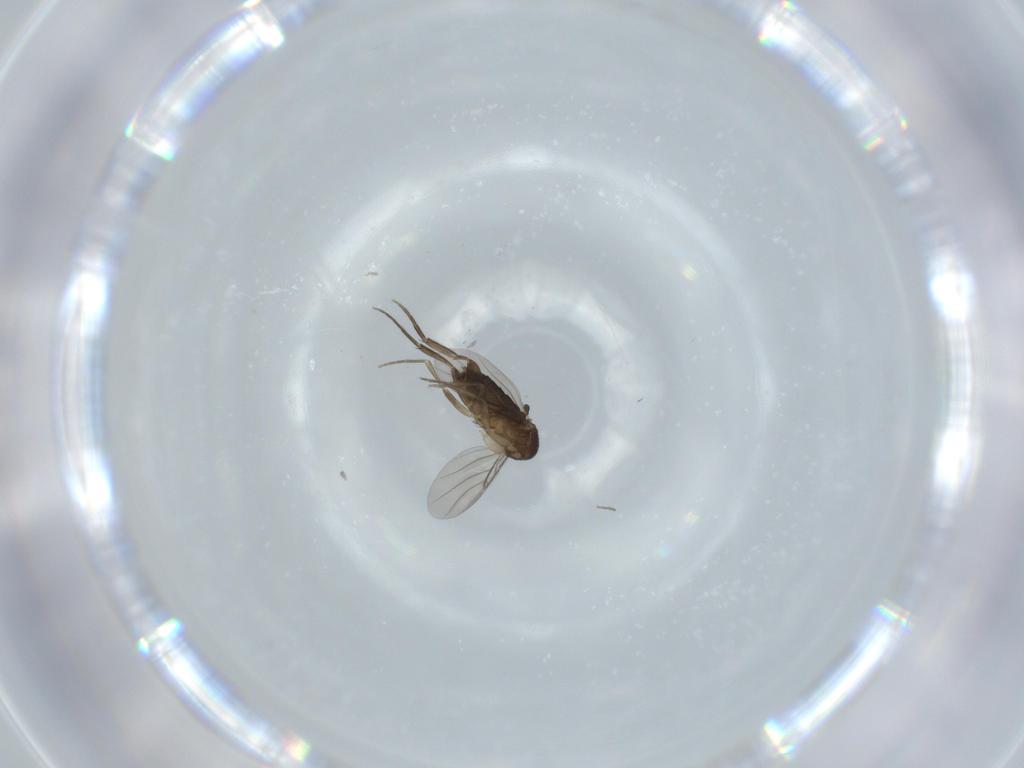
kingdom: Animalia
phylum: Arthropoda
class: Insecta
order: Diptera
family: Phoridae
